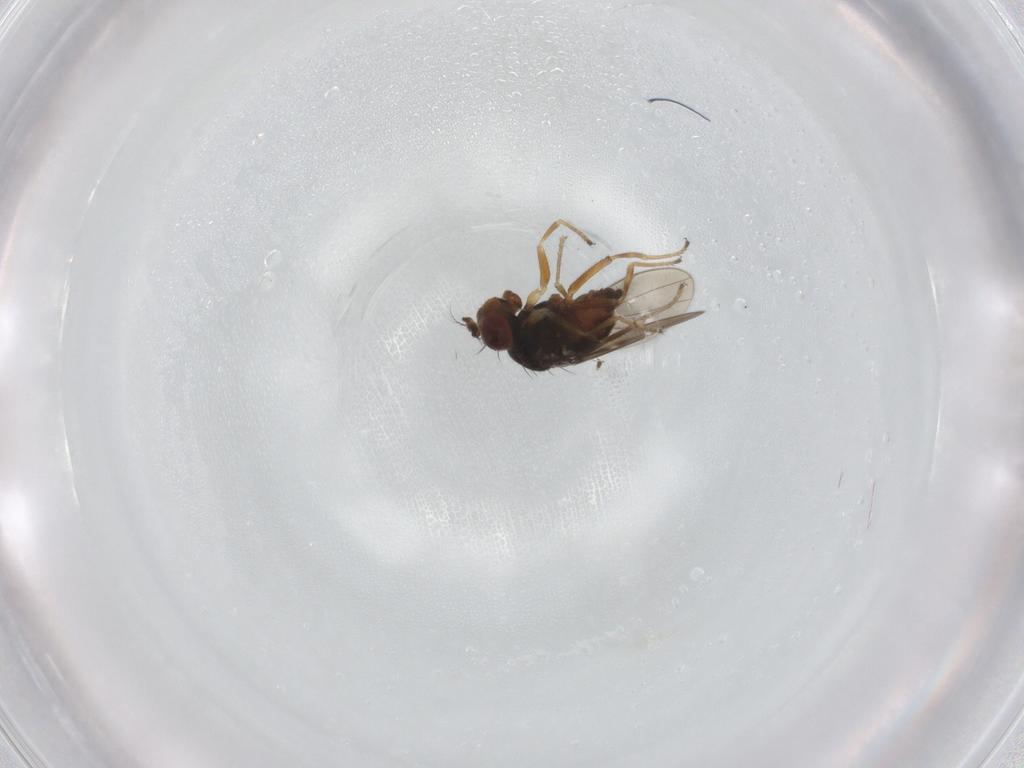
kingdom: Animalia
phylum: Arthropoda
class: Insecta
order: Diptera
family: Ephydridae
